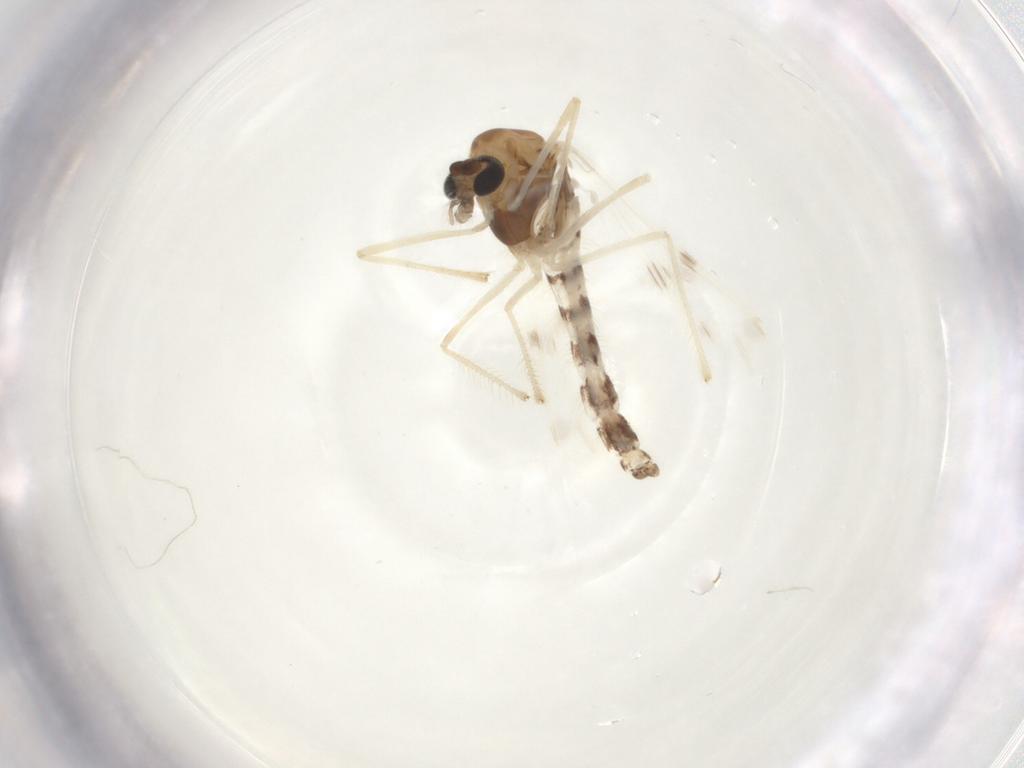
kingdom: Animalia
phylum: Arthropoda
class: Insecta
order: Diptera
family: Chironomidae
